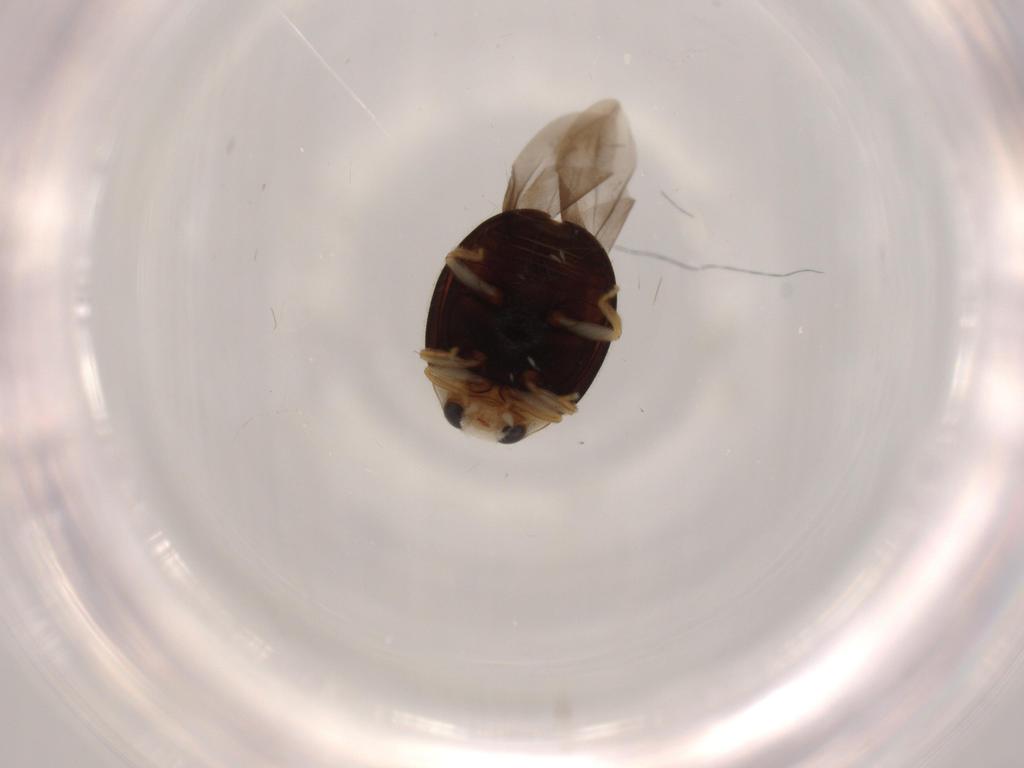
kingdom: Animalia
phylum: Arthropoda
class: Insecta
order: Coleoptera
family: Coccinellidae
